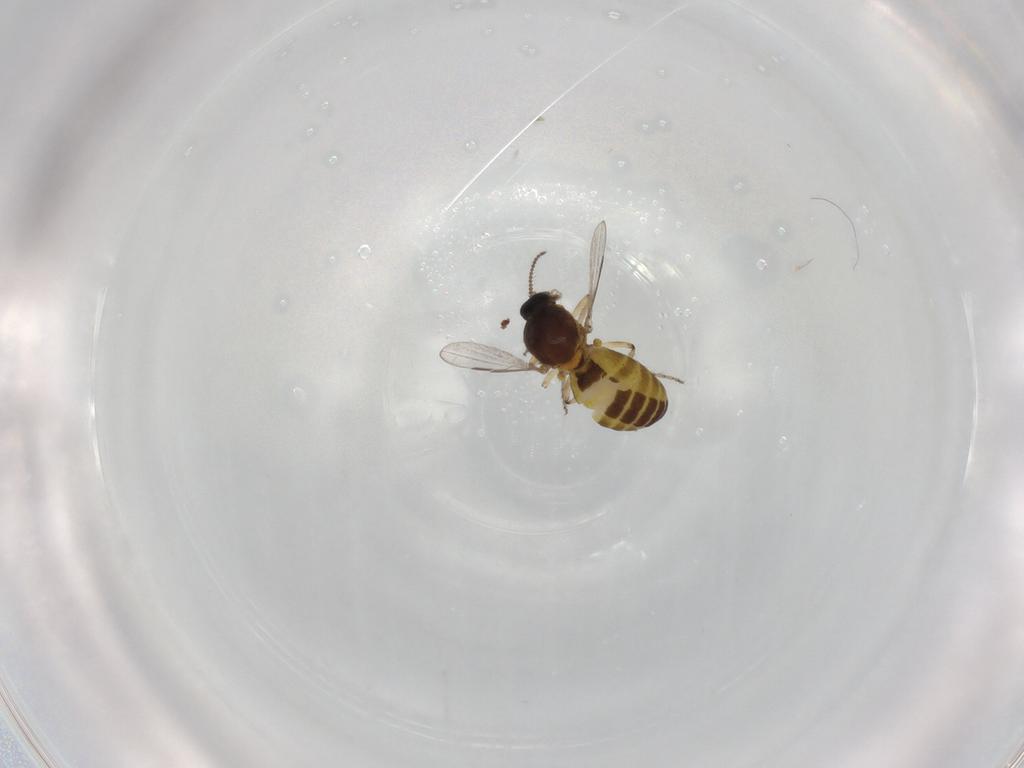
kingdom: Animalia
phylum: Arthropoda
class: Insecta
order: Diptera
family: Ceratopogonidae
